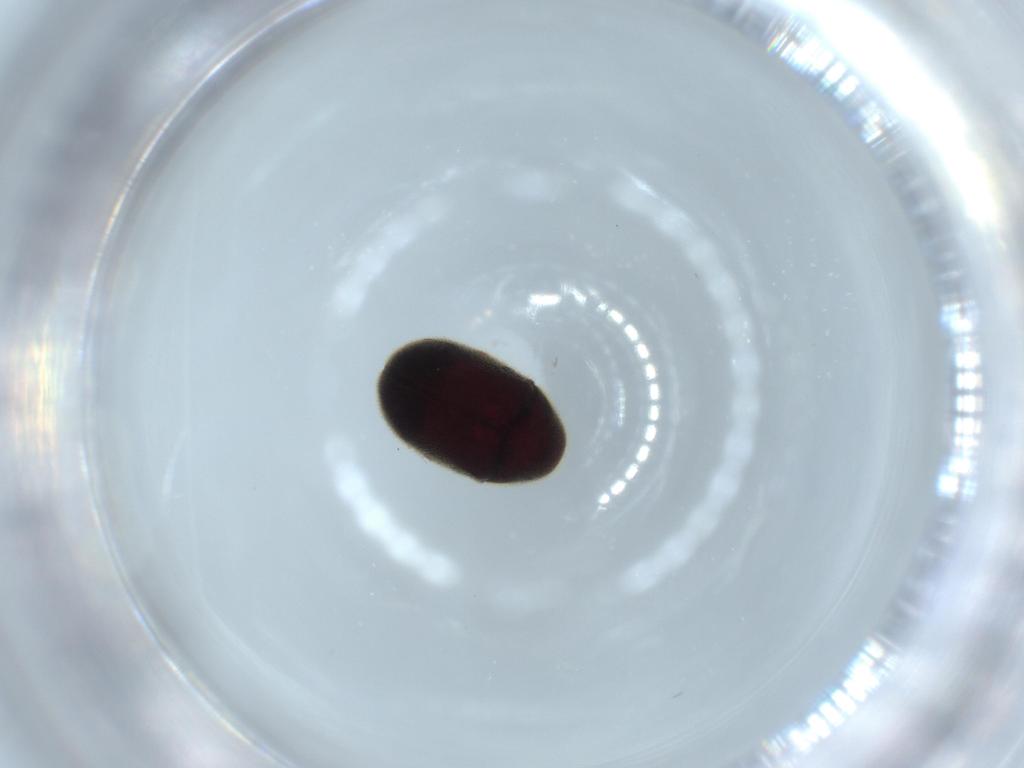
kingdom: Animalia
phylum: Arthropoda
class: Insecta
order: Coleoptera
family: Ptinidae
